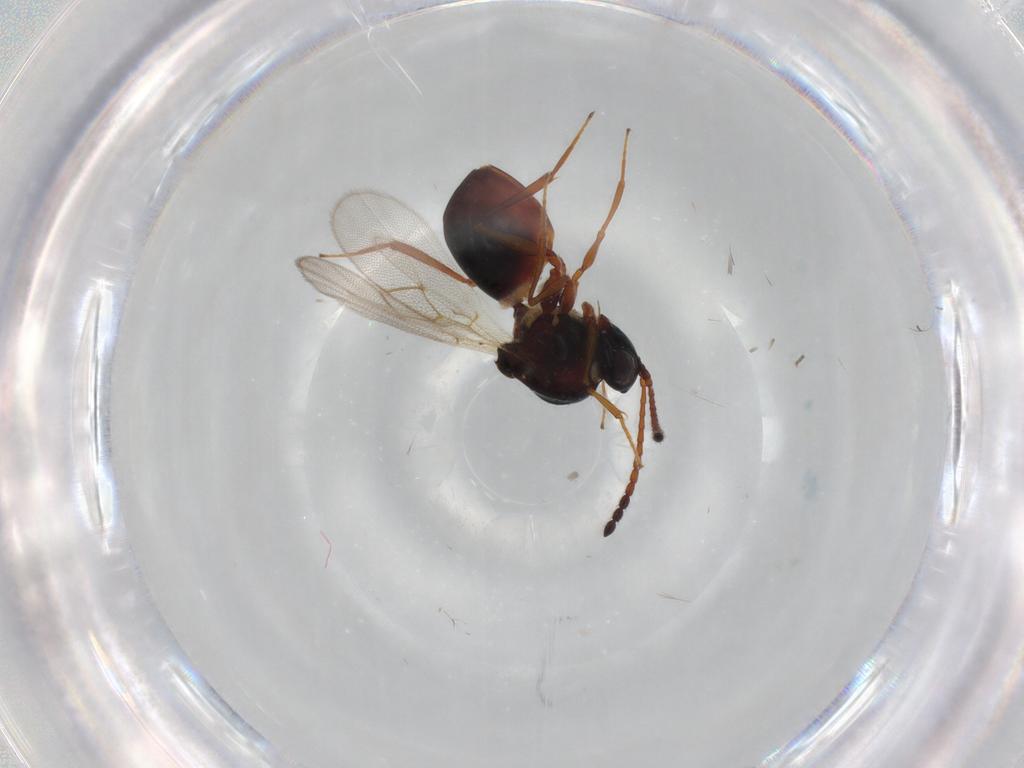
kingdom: Animalia
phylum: Arthropoda
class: Insecta
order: Hymenoptera
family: Figitidae
